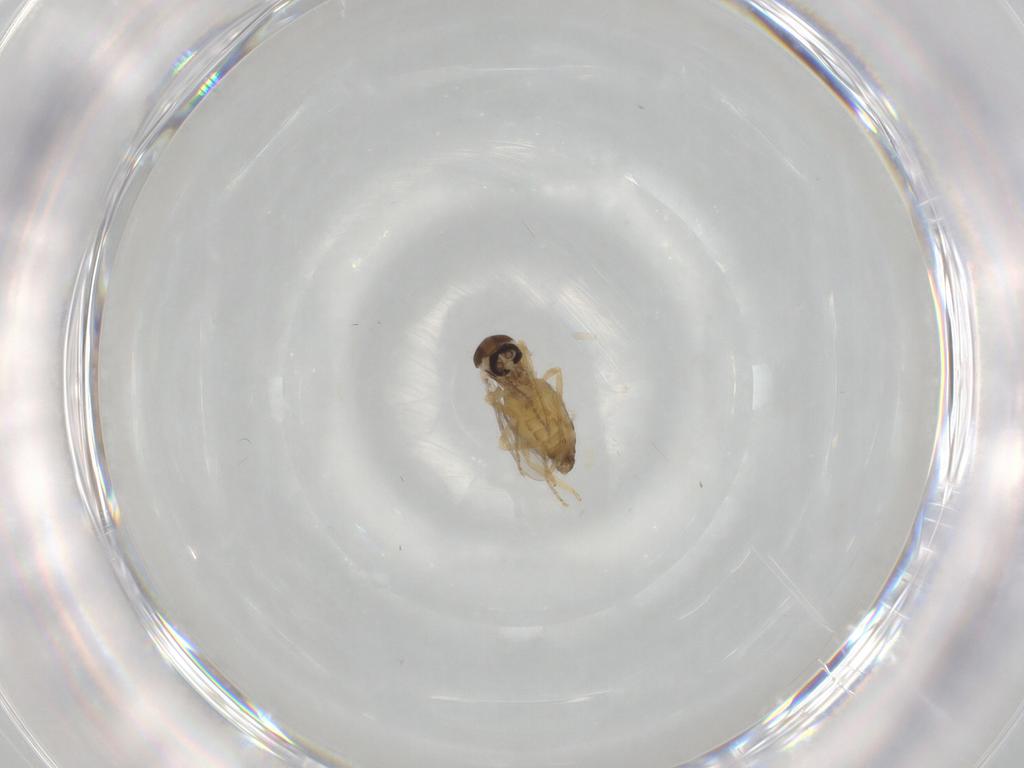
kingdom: Animalia
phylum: Arthropoda
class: Insecta
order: Diptera
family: Ceratopogonidae
